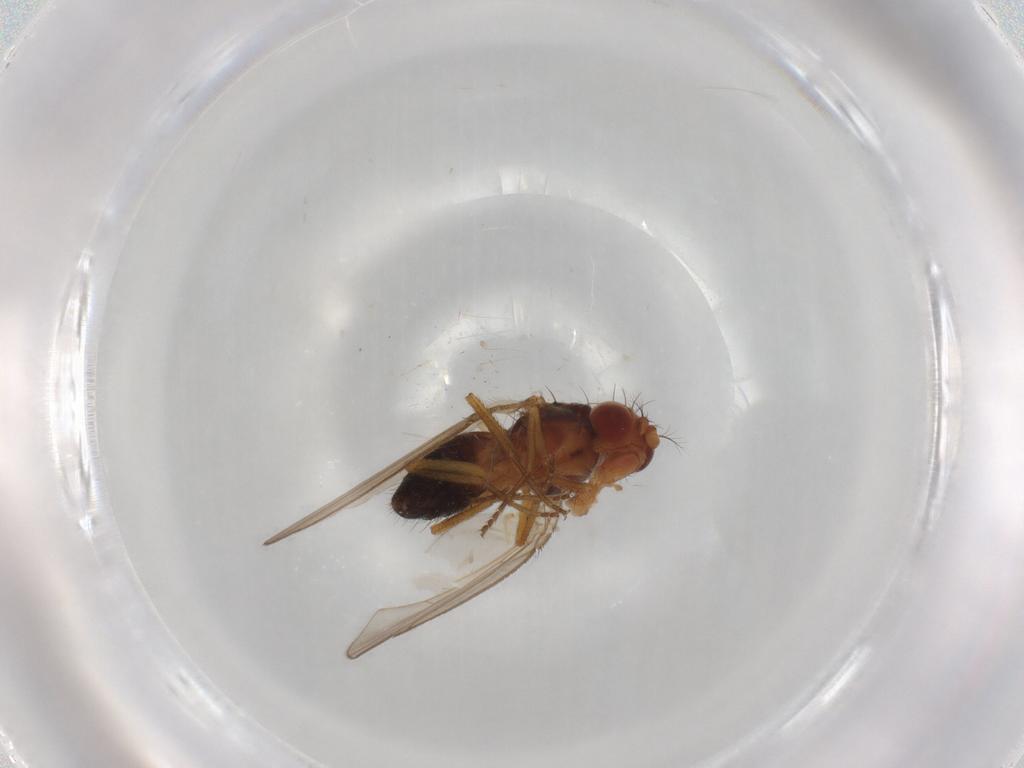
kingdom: Animalia
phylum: Arthropoda
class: Insecta
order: Diptera
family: Drosophilidae
